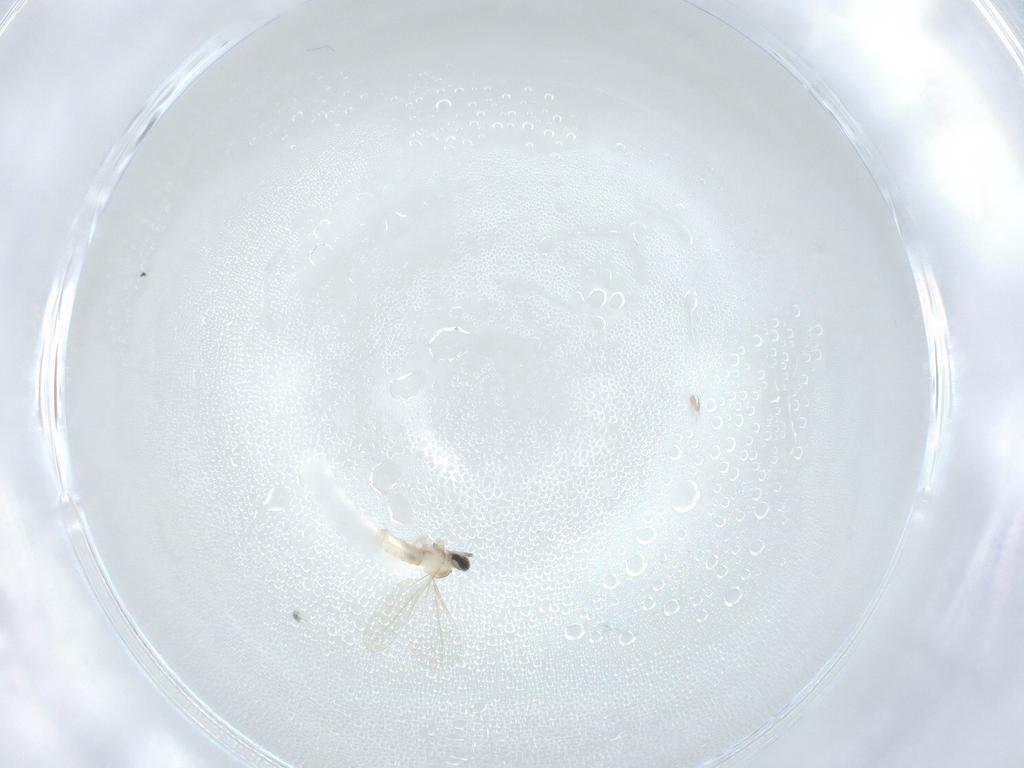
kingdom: Animalia
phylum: Arthropoda
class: Insecta
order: Diptera
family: Cecidomyiidae
